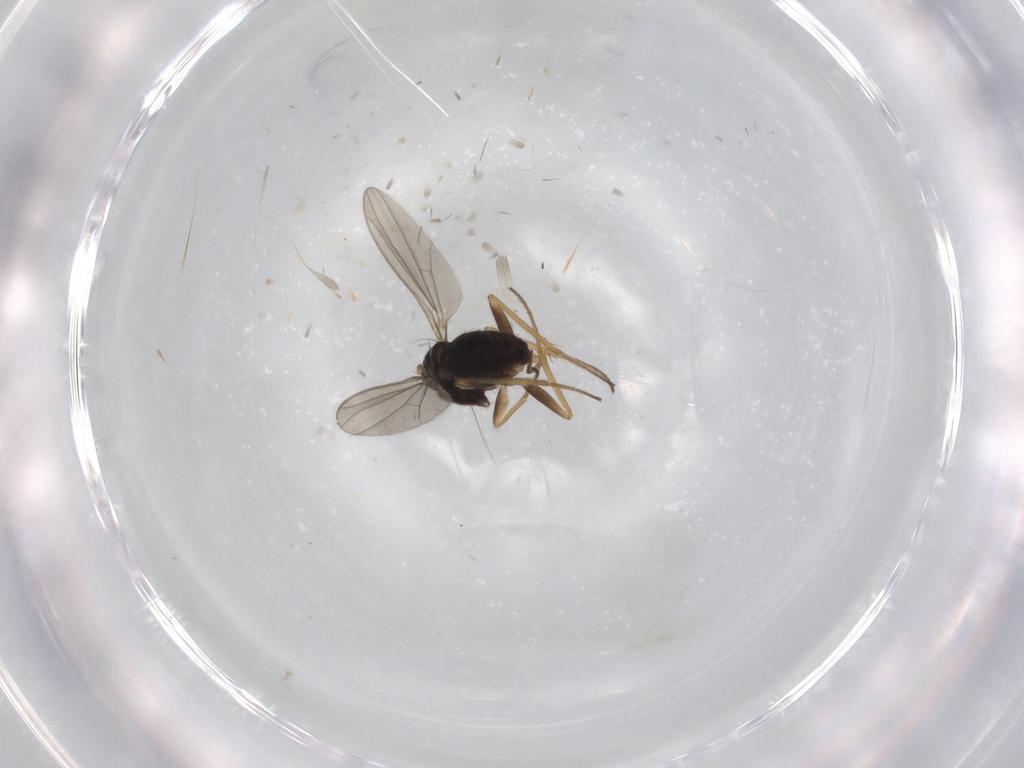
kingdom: Animalia
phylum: Arthropoda
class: Insecta
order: Diptera
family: Dolichopodidae
